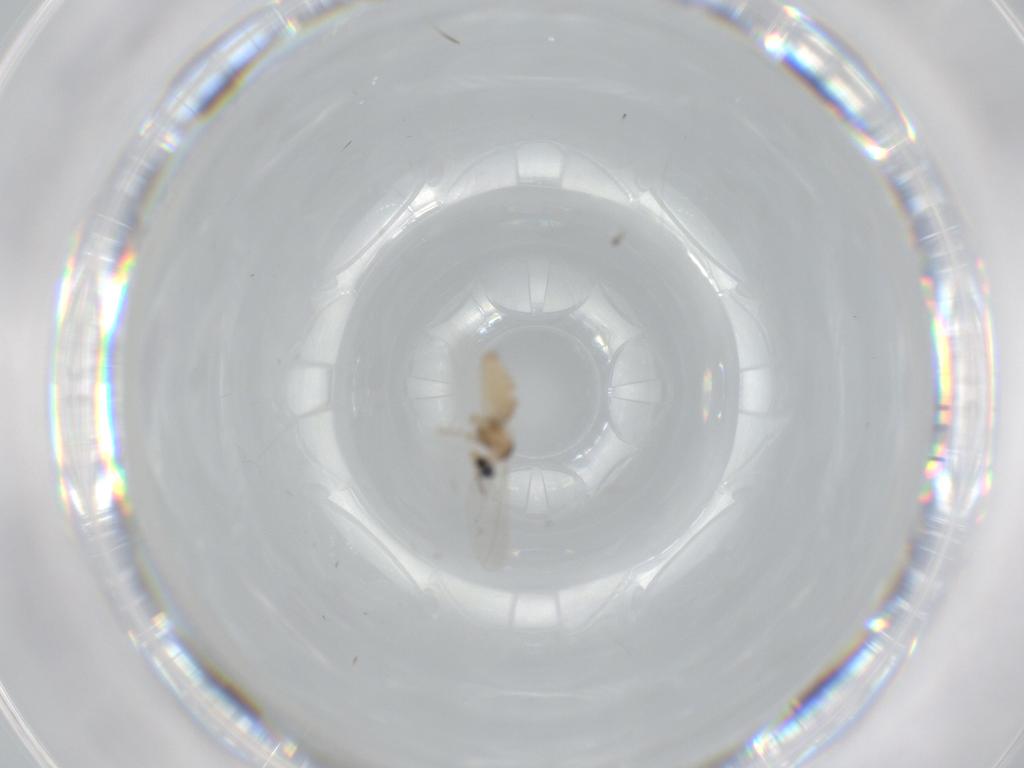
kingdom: Animalia
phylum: Arthropoda
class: Insecta
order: Diptera
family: Cecidomyiidae
